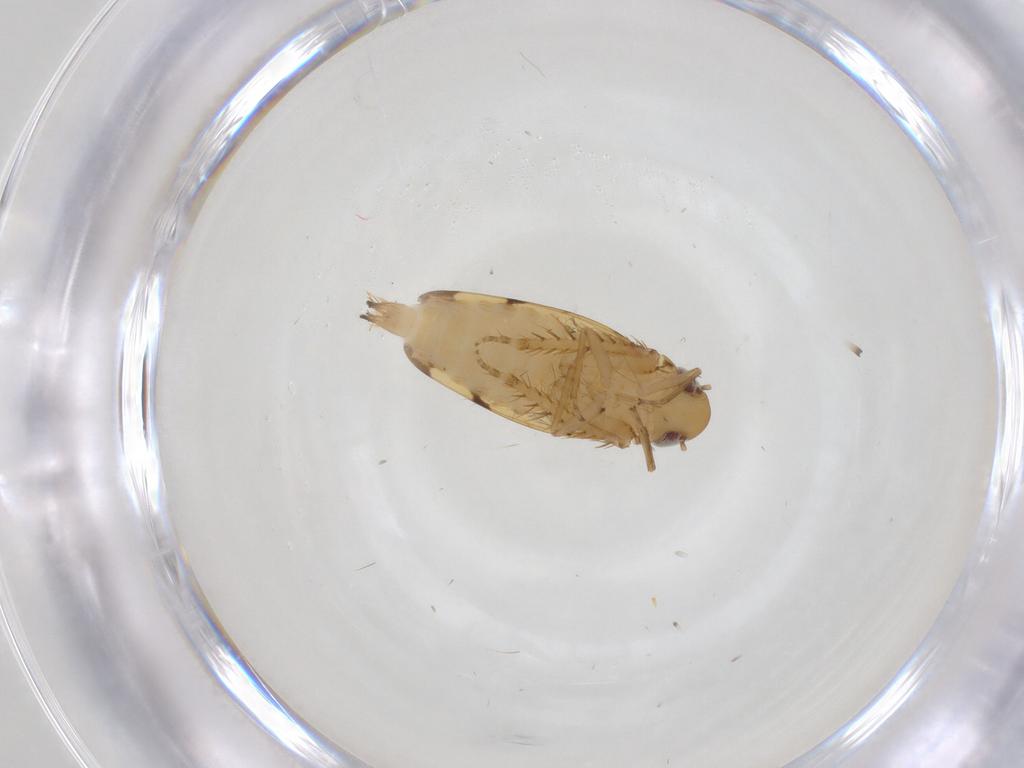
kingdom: Animalia
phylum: Arthropoda
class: Insecta
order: Hemiptera
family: Cicadellidae
